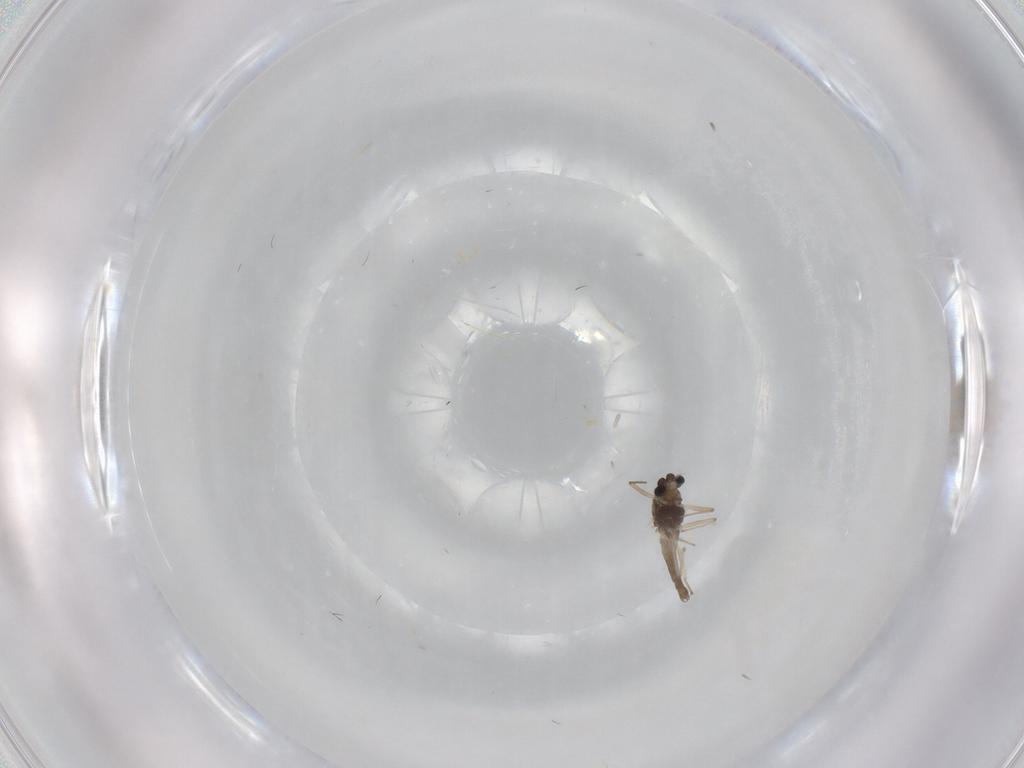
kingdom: Animalia
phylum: Arthropoda
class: Insecta
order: Diptera
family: Chironomidae
